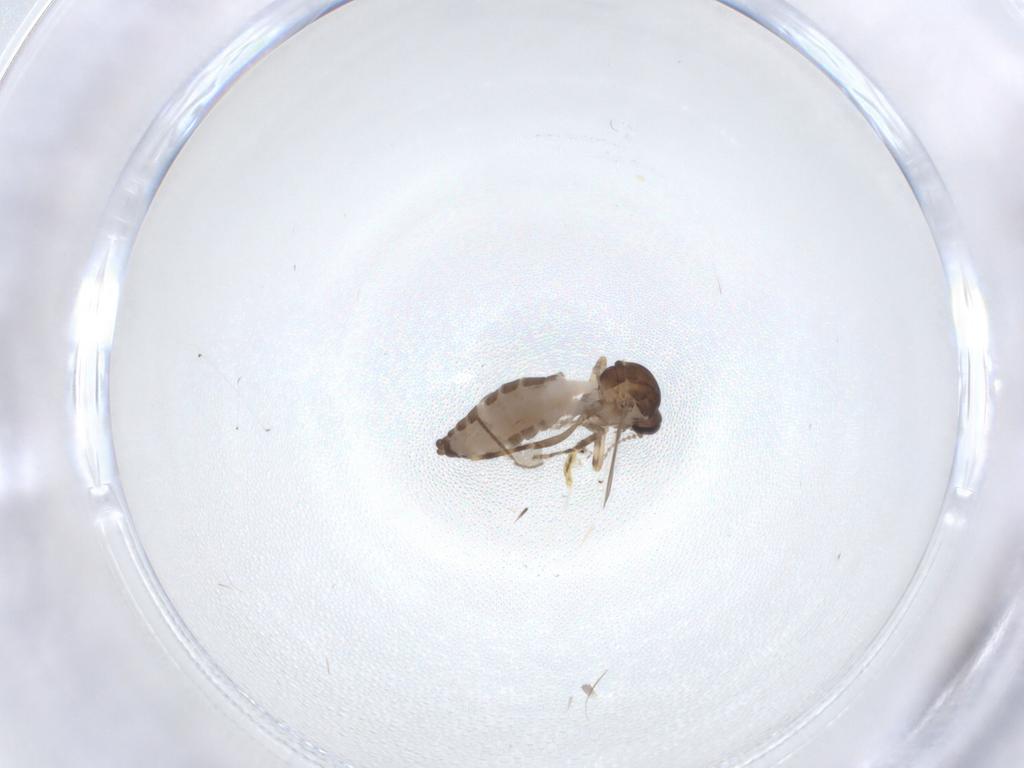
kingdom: Animalia
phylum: Arthropoda
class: Insecta
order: Diptera
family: Ceratopogonidae
